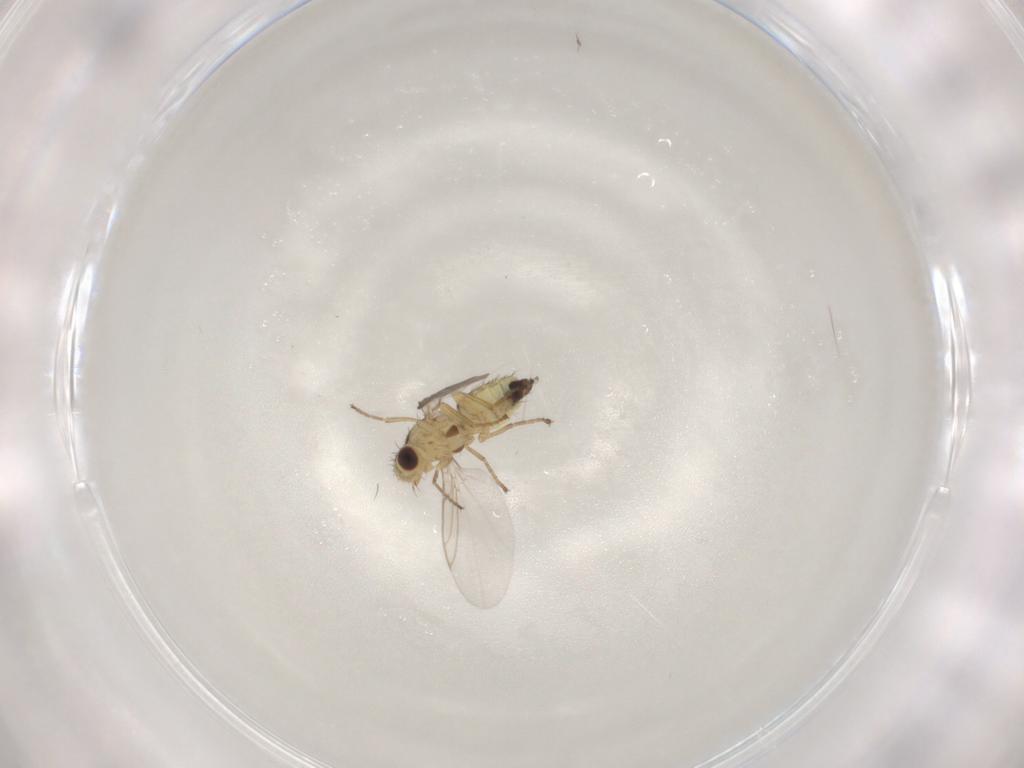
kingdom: Animalia
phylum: Arthropoda
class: Insecta
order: Diptera
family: Agromyzidae
